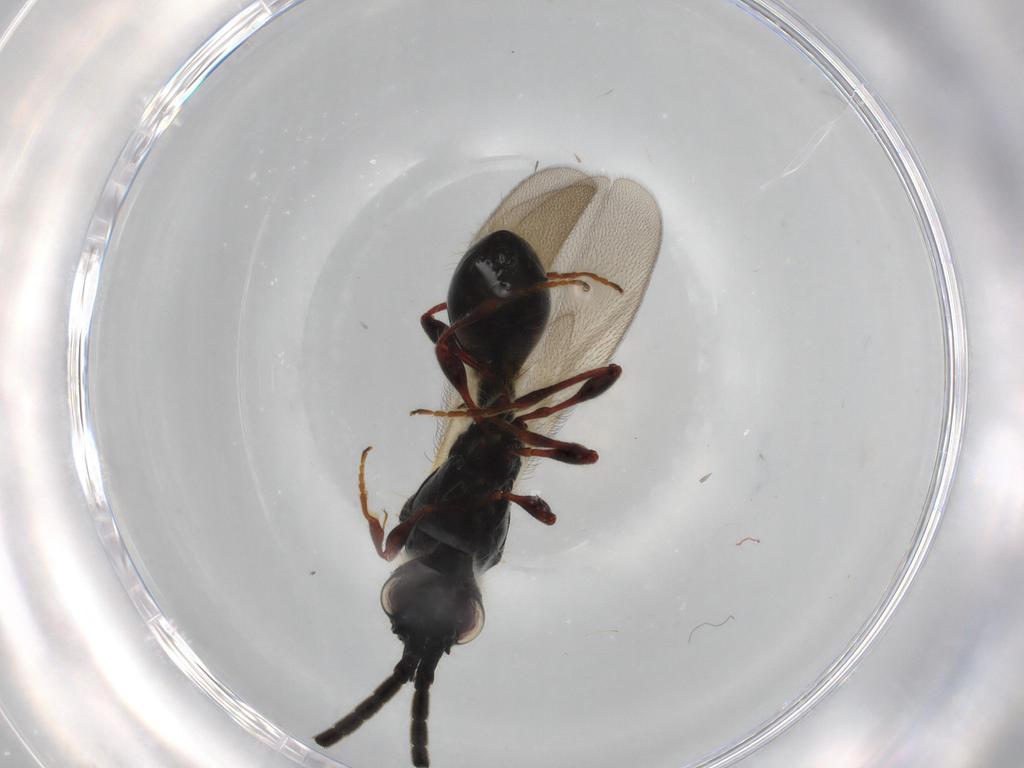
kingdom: Animalia
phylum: Arthropoda
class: Insecta
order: Hymenoptera
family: Diapriidae
